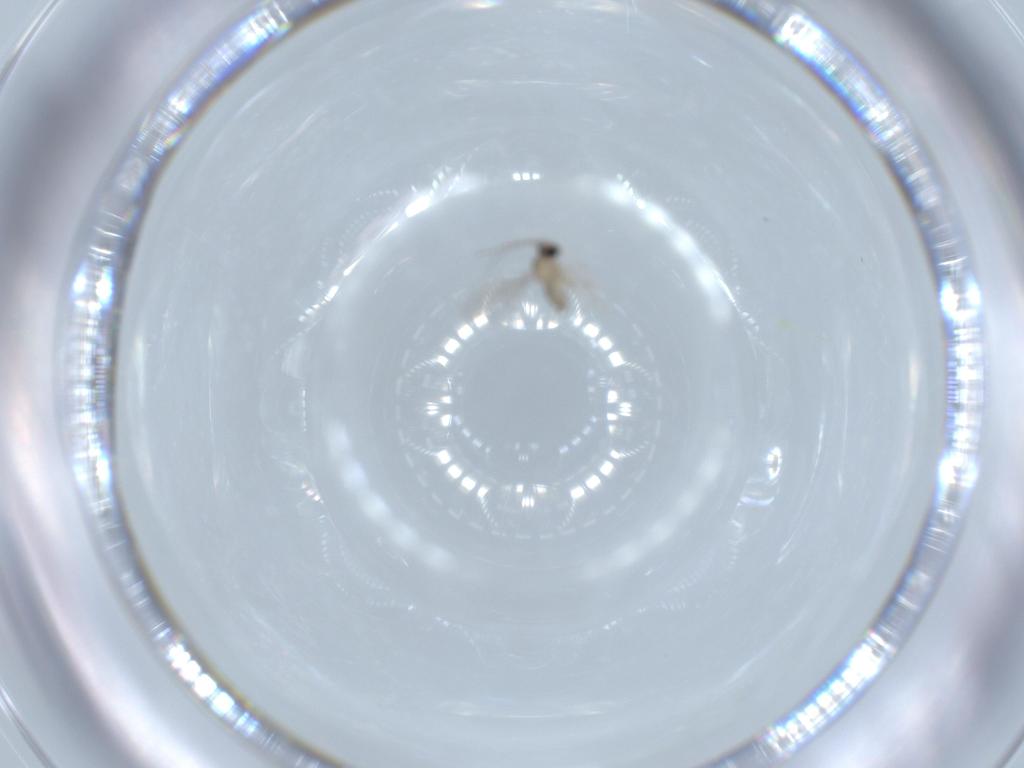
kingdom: Animalia
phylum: Arthropoda
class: Insecta
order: Diptera
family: Cecidomyiidae
